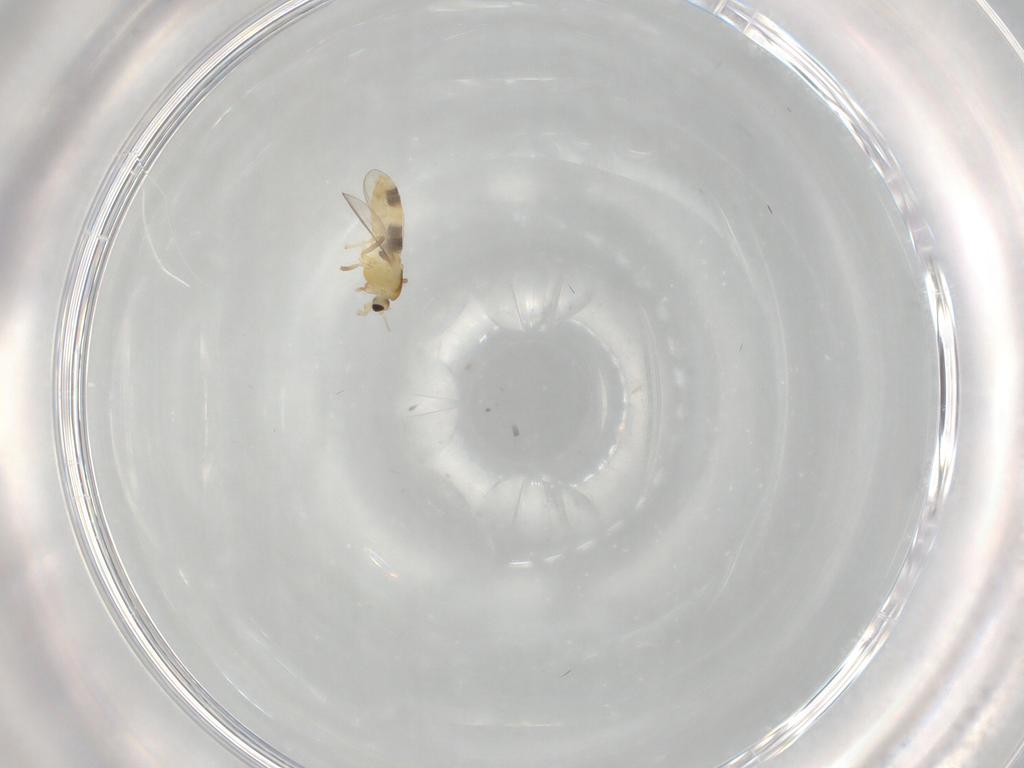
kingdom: Animalia
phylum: Arthropoda
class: Insecta
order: Diptera
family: Cecidomyiidae
